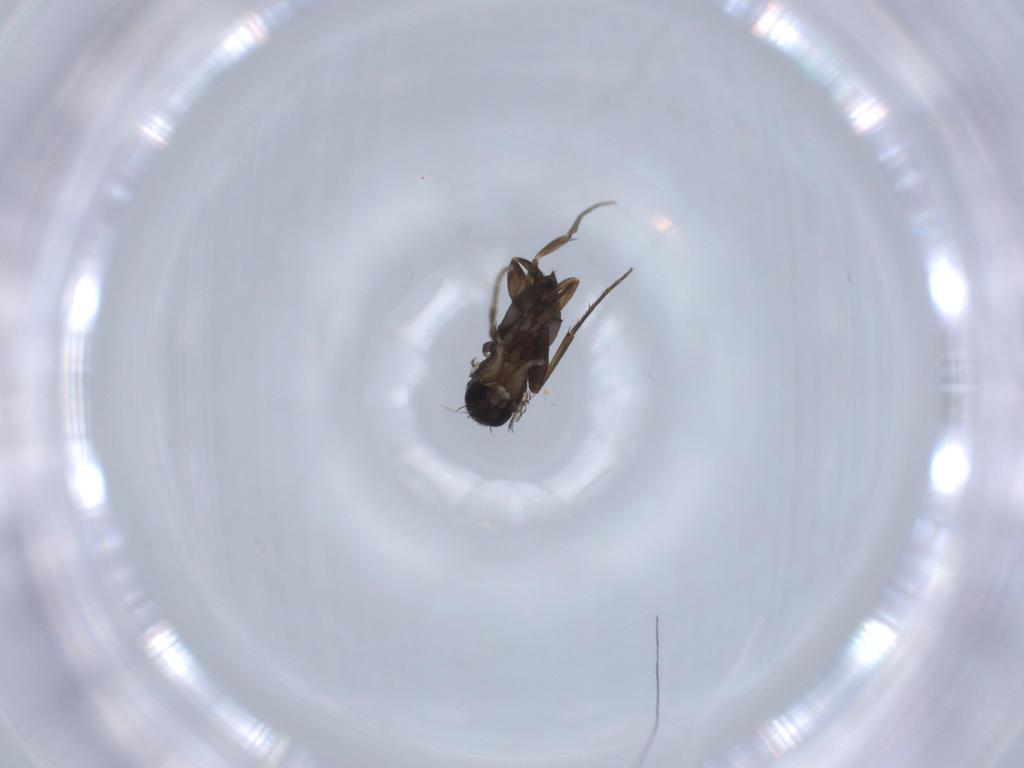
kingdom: Animalia
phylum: Arthropoda
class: Insecta
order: Diptera
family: Phoridae
